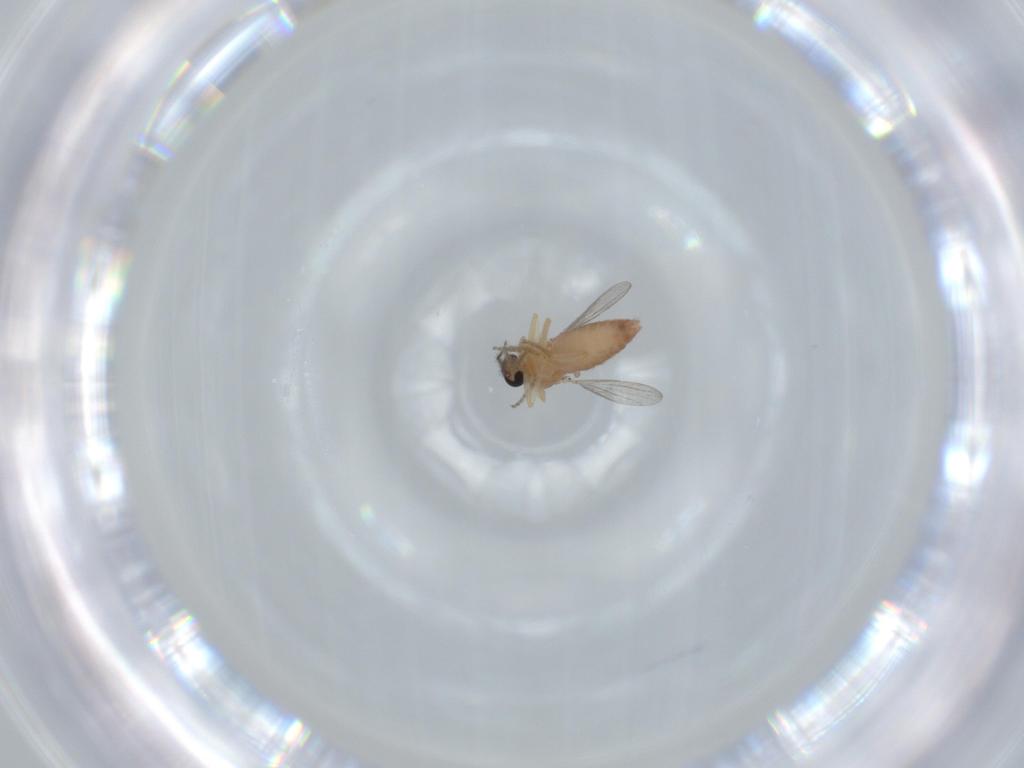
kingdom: Animalia
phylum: Arthropoda
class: Insecta
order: Diptera
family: Ceratopogonidae
